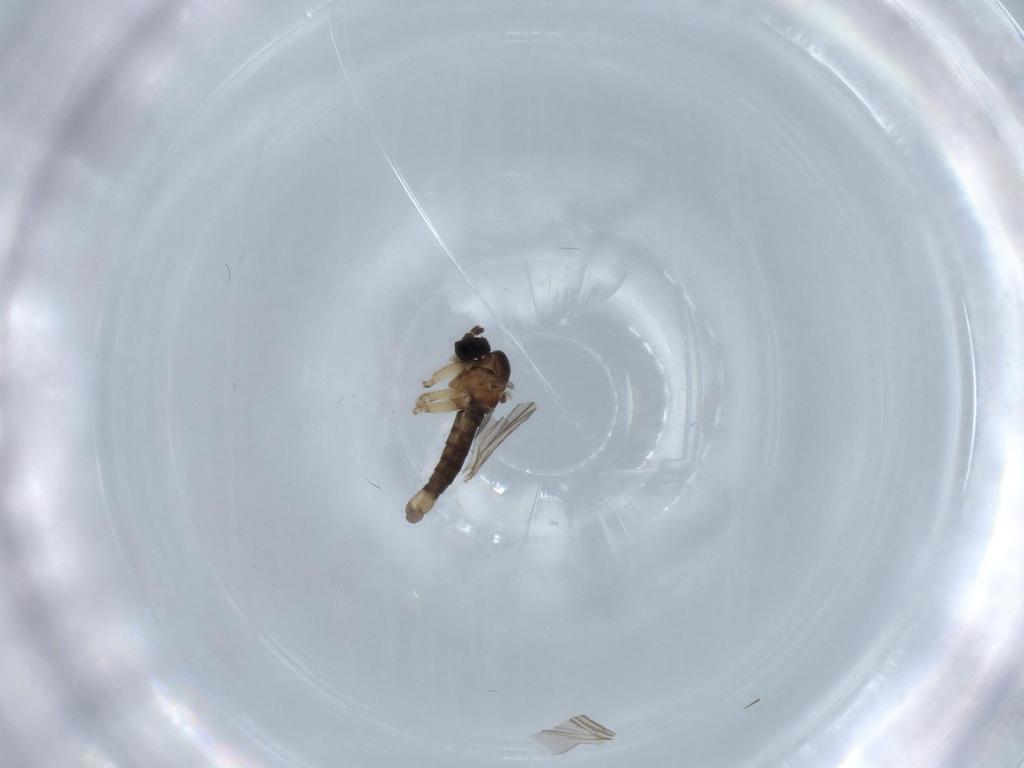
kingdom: Animalia
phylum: Arthropoda
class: Insecta
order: Diptera
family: Sciaridae
